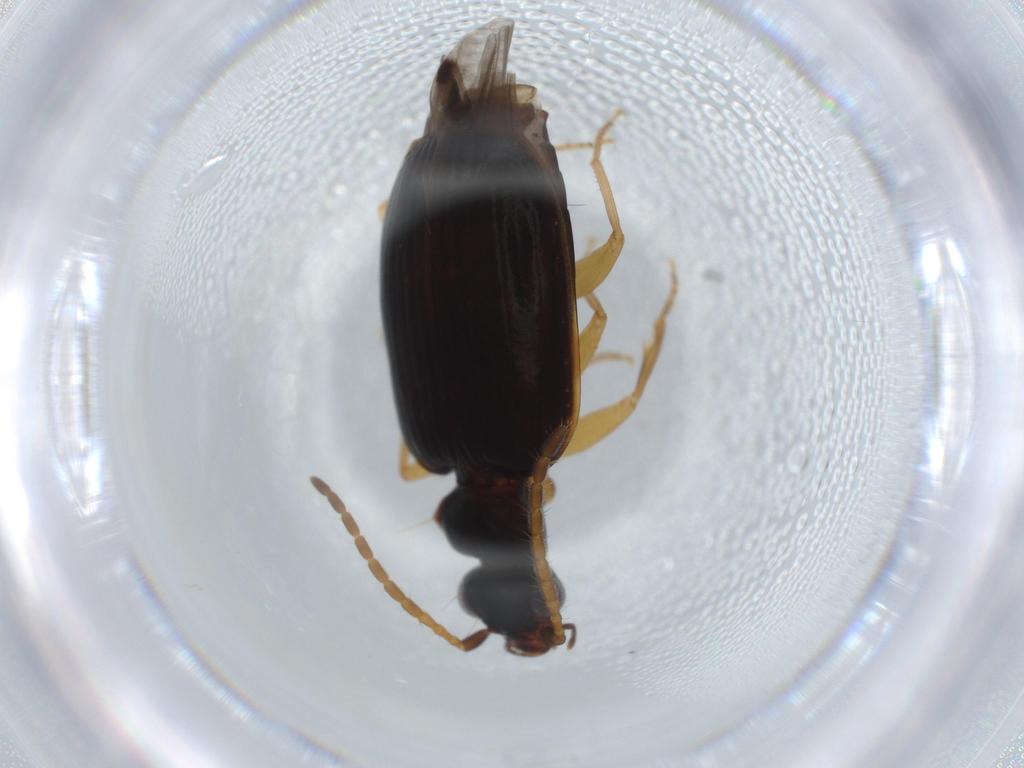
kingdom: Animalia
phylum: Arthropoda
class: Insecta
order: Coleoptera
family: Carabidae
